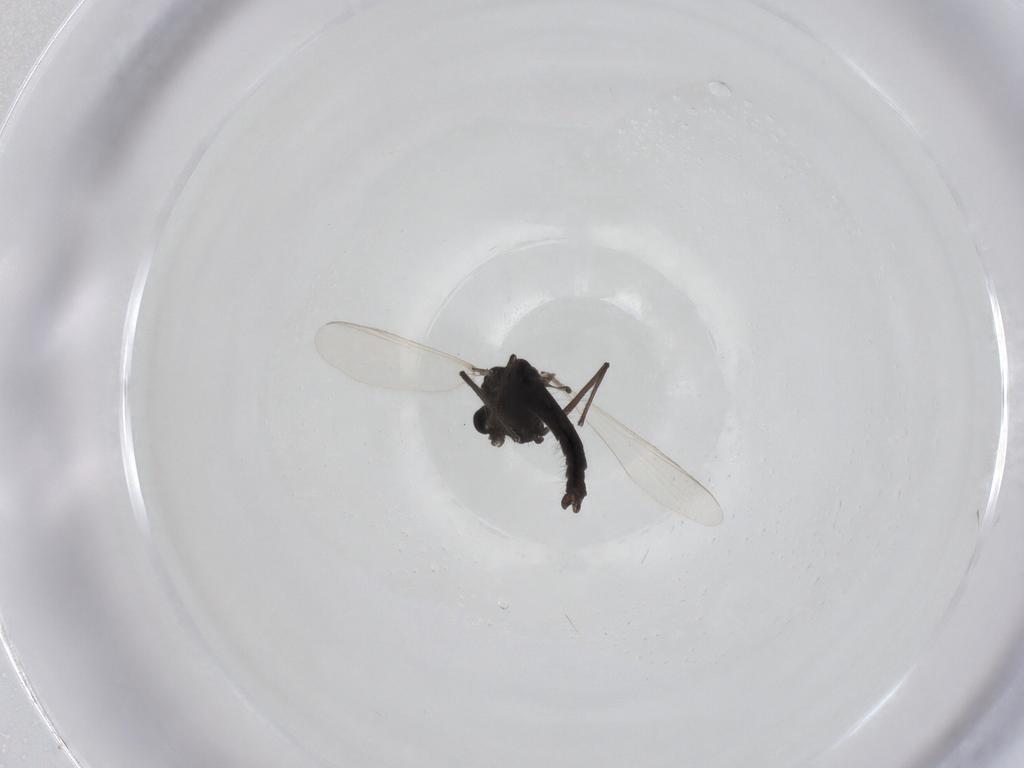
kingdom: Animalia
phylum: Arthropoda
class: Insecta
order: Diptera
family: Chironomidae
